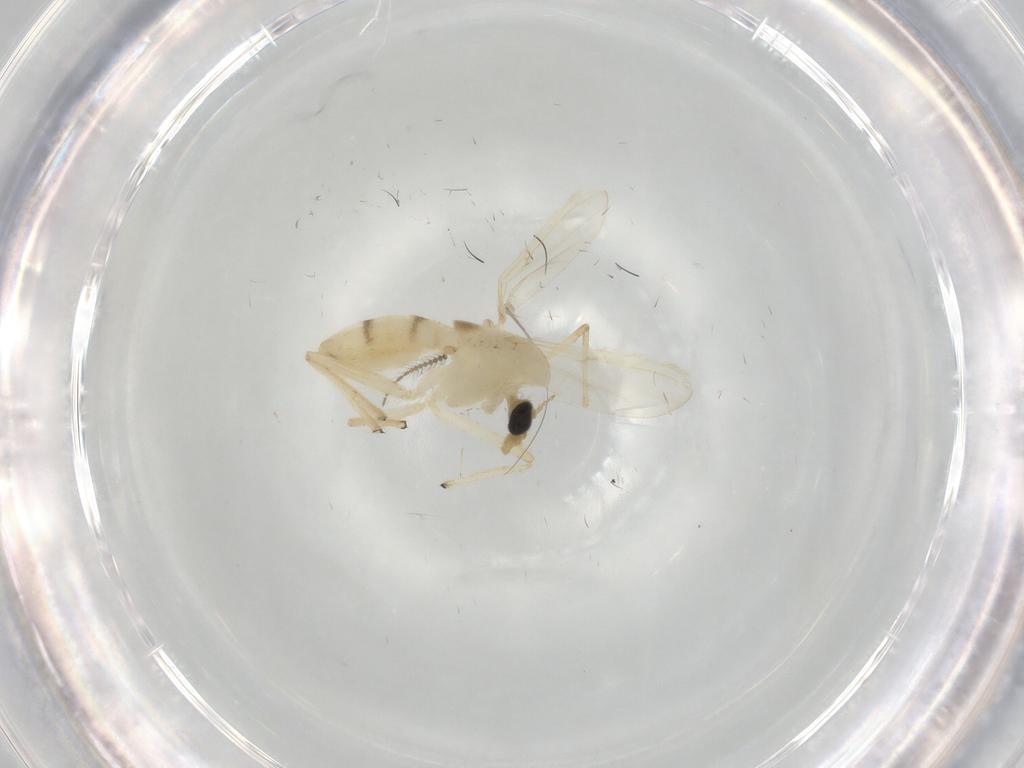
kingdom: Animalia
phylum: Arthropoda
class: Insecta
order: Diptera
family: Chironomidae
